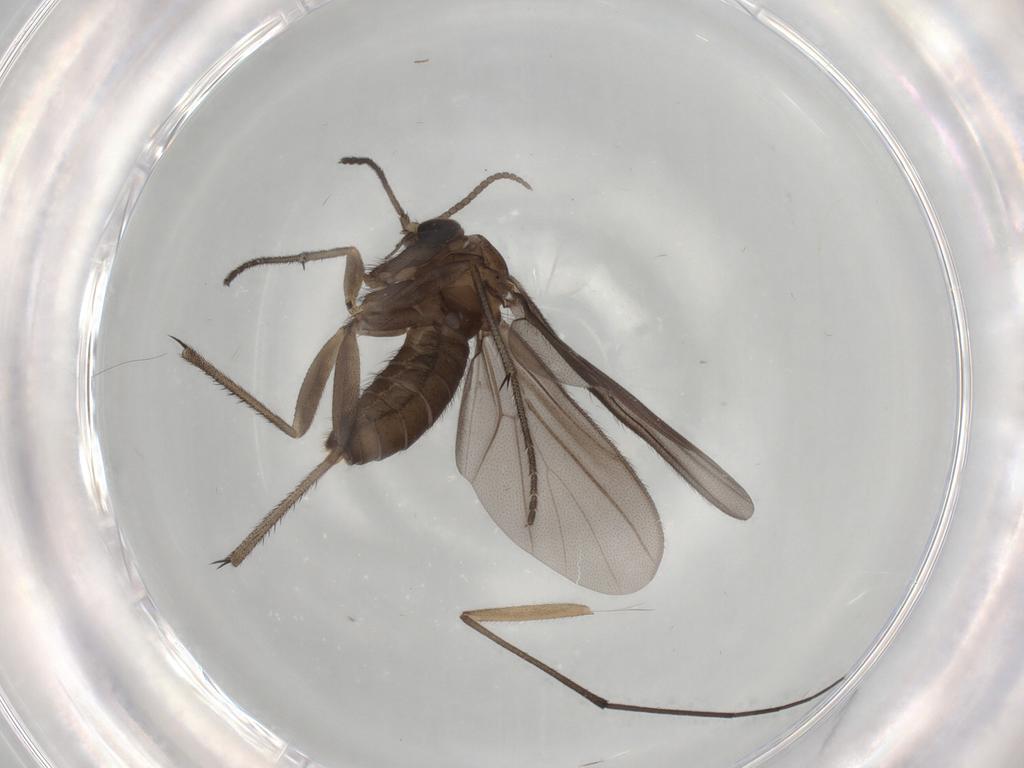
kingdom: Animalia
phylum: Arthropoda
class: Insecta
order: Diptera
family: Diadocidiidae
